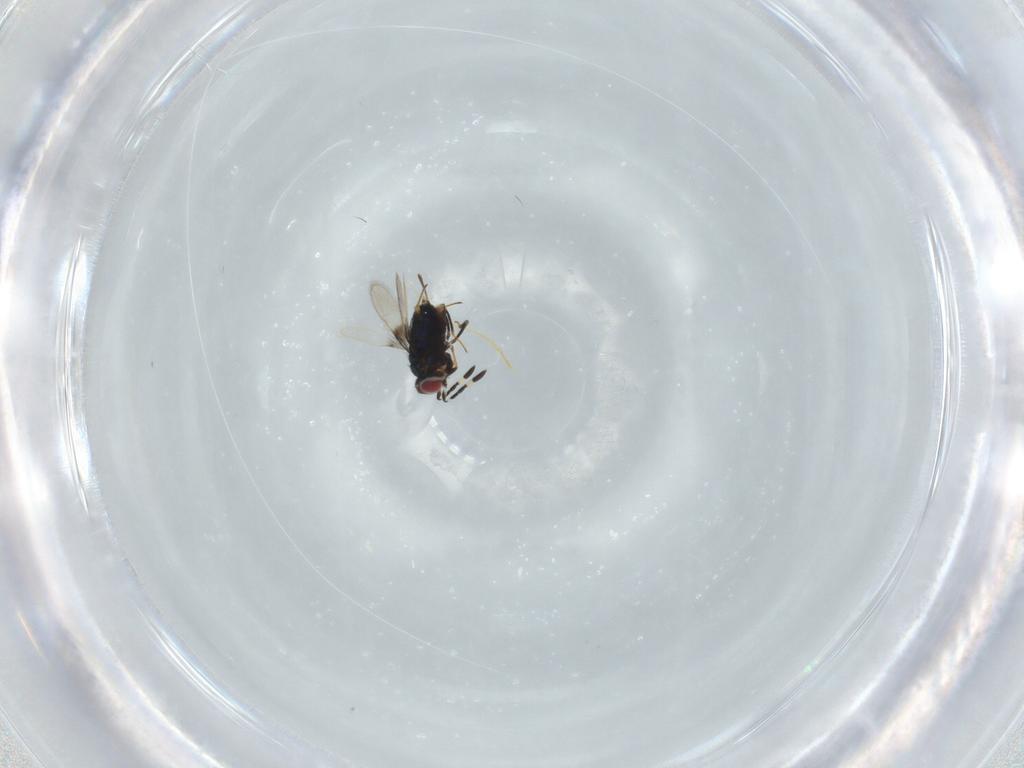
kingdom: Animalia
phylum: Arthropoda
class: Insecta
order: Hymenoptera
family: Azotidae
